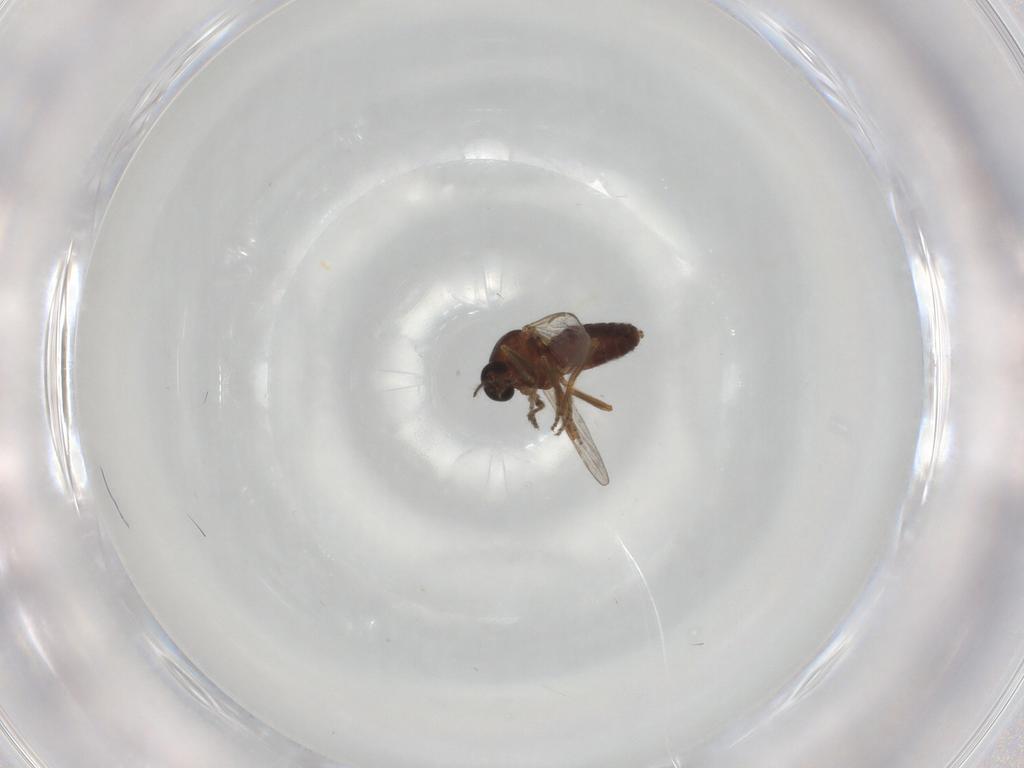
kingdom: Animalia
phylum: Arthropoda
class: Insecta
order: Diptera
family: Ceratopogonidae
